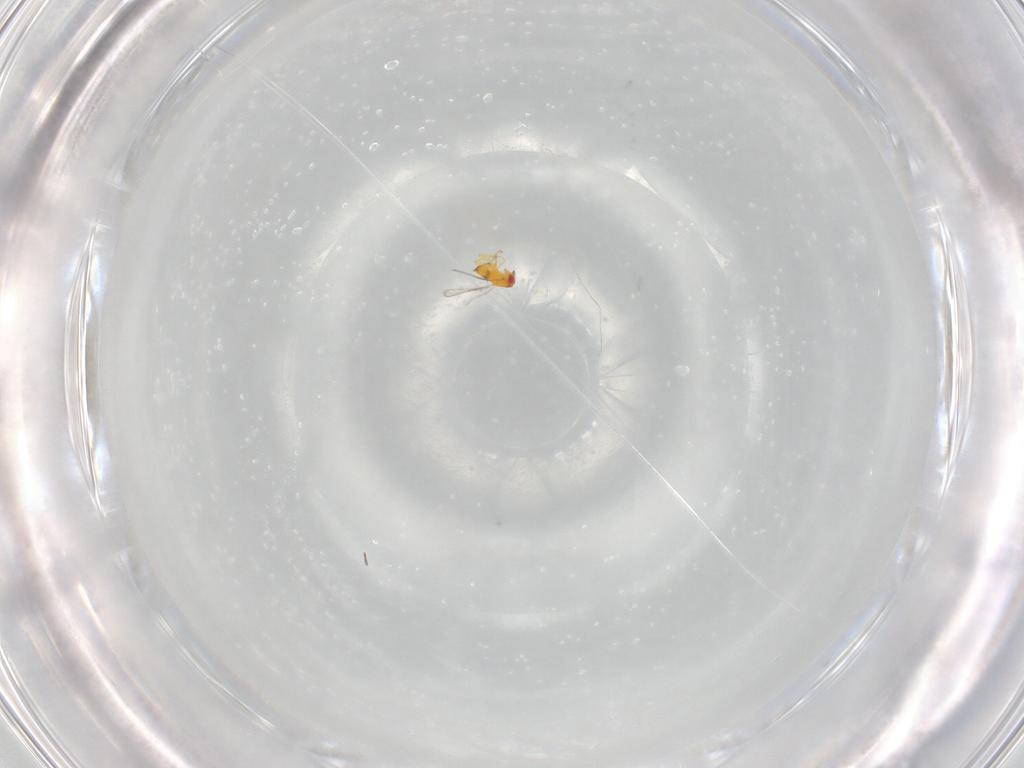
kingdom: Animalia
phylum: Arthropoda
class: Insecta
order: Hymenoptera
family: Trichogrammatidae
